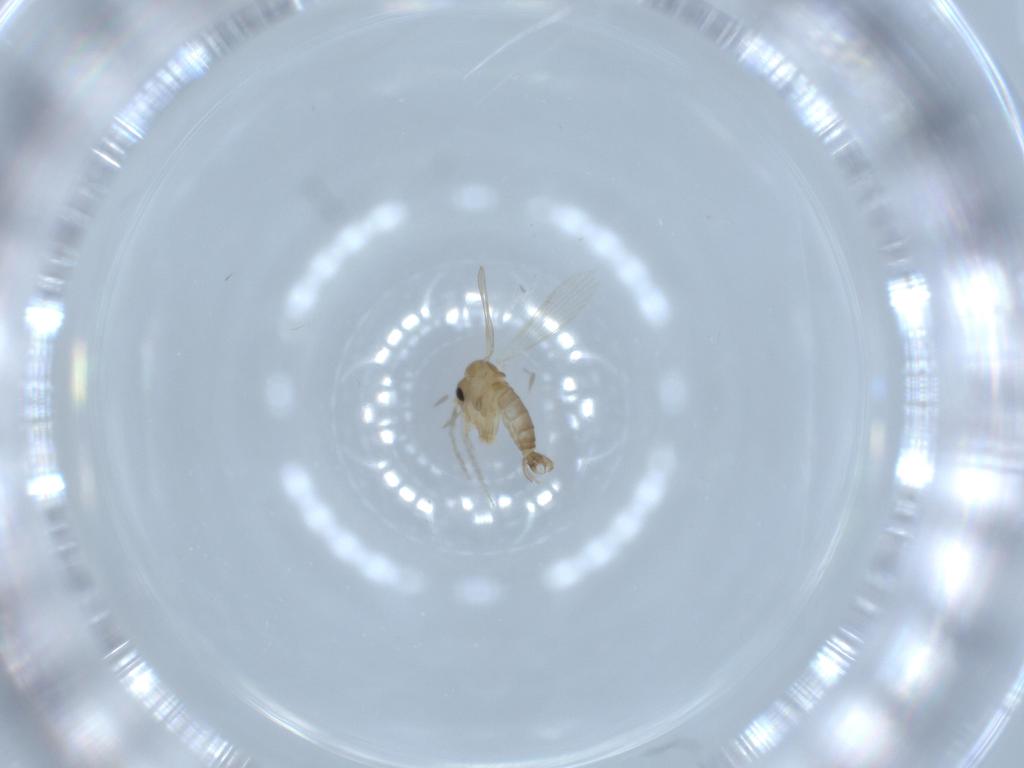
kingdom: Animalia
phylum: Arthropoda
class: Insecta
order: Diptera
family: Psychodidae
